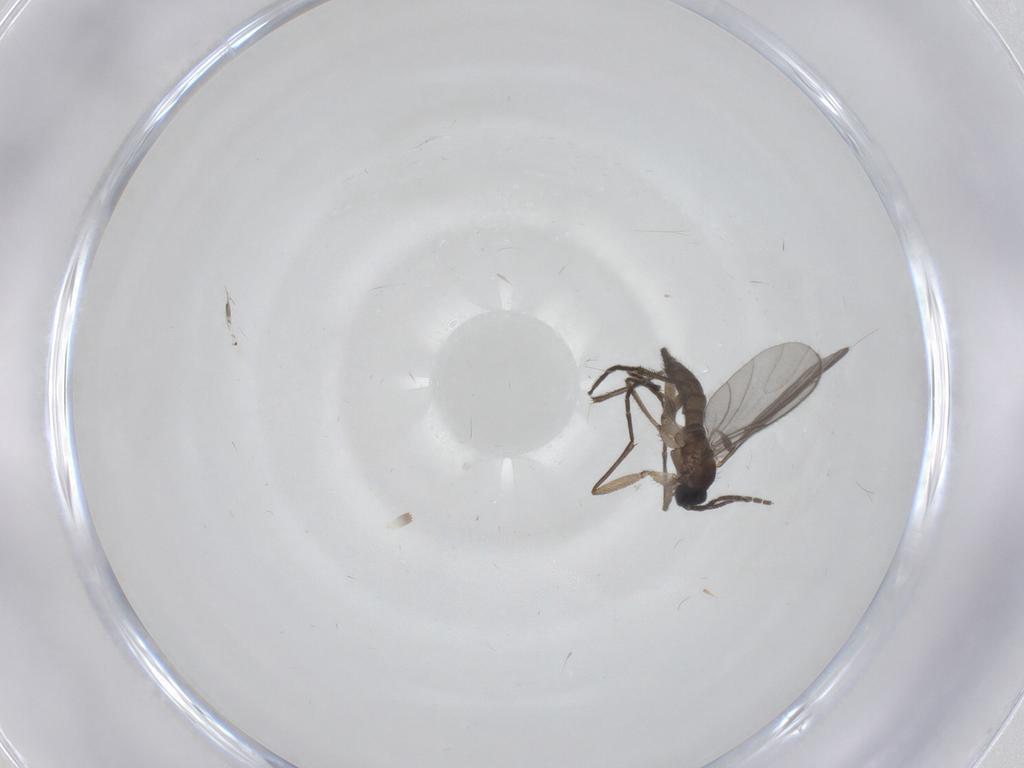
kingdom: Animalia
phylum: Arthropoda
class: Insecta
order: Diptera
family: Sciaridae
